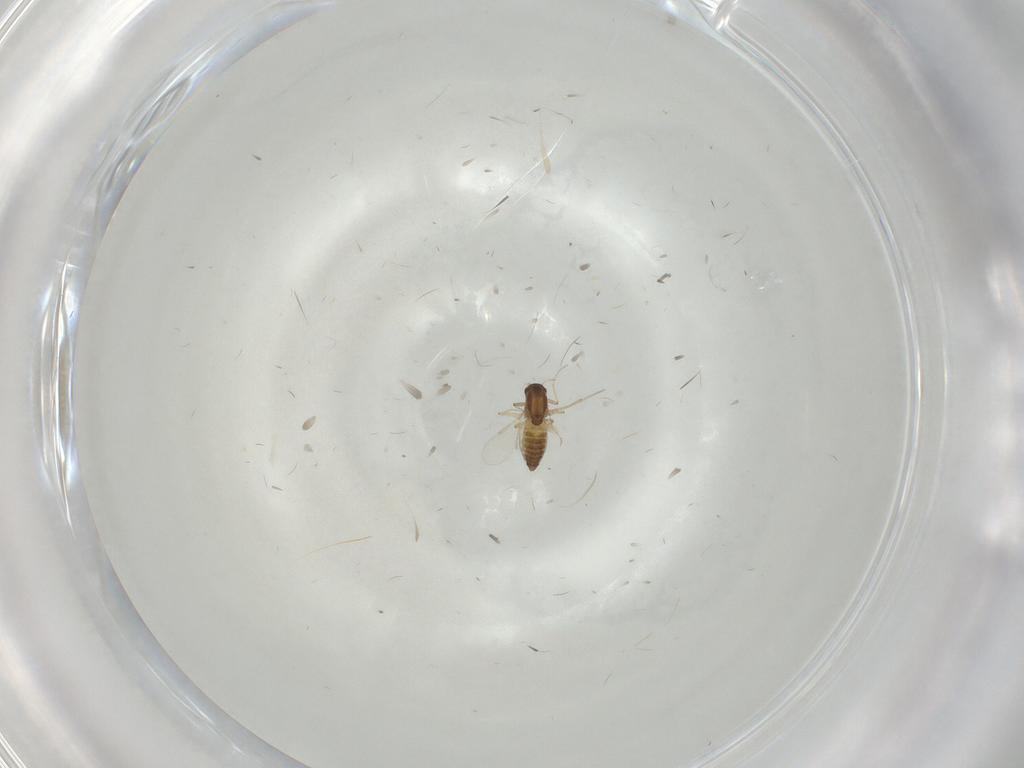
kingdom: Animalia
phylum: Arthropoda
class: Insecta
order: Diptera
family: Chironomidae
